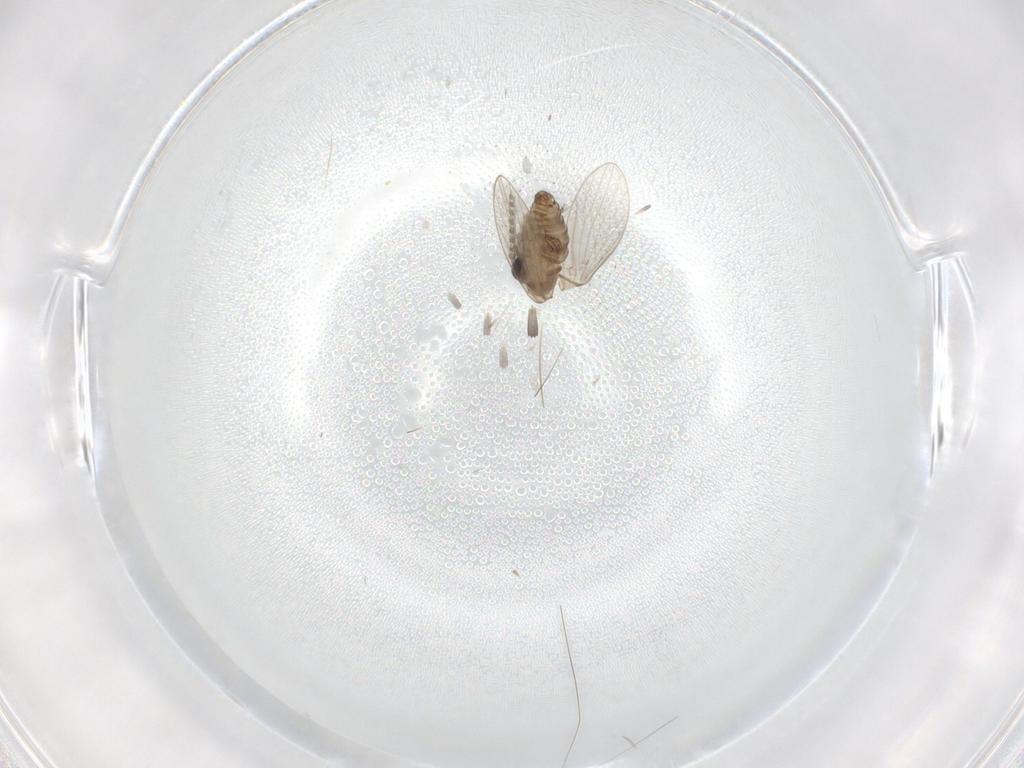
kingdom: Animalia
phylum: Arthropoda
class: Insecta
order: Diptera
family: Psychodidae
